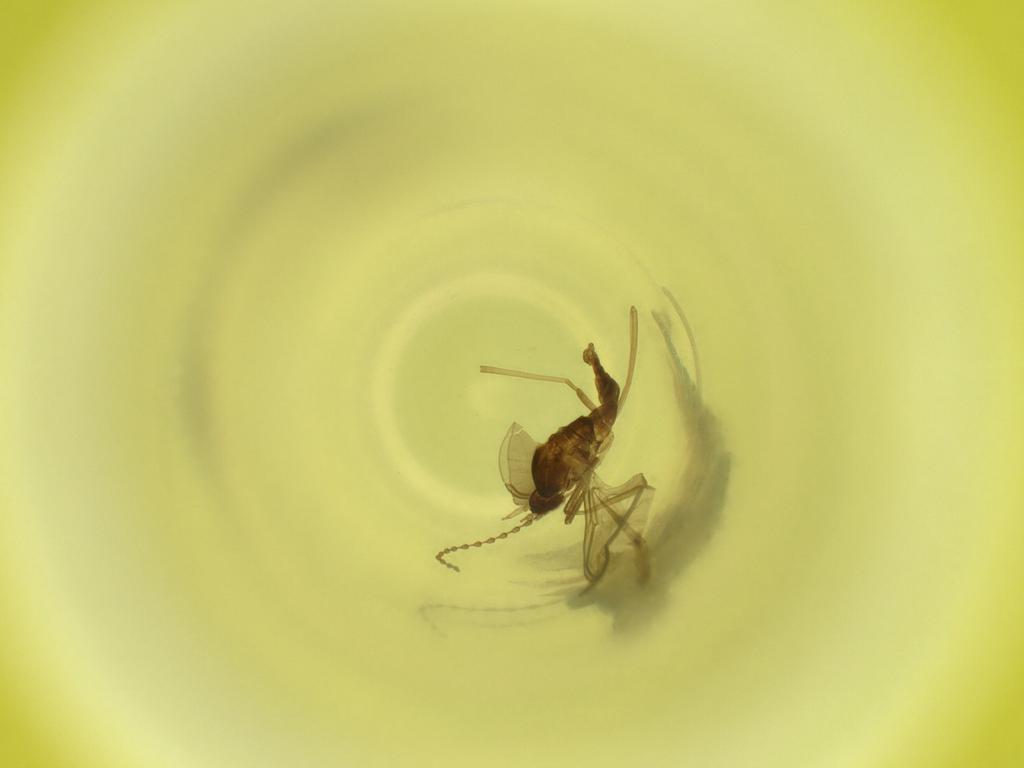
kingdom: Animalia
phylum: Arthropoda
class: Insecta
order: Diptera
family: Cecidomyiidae
